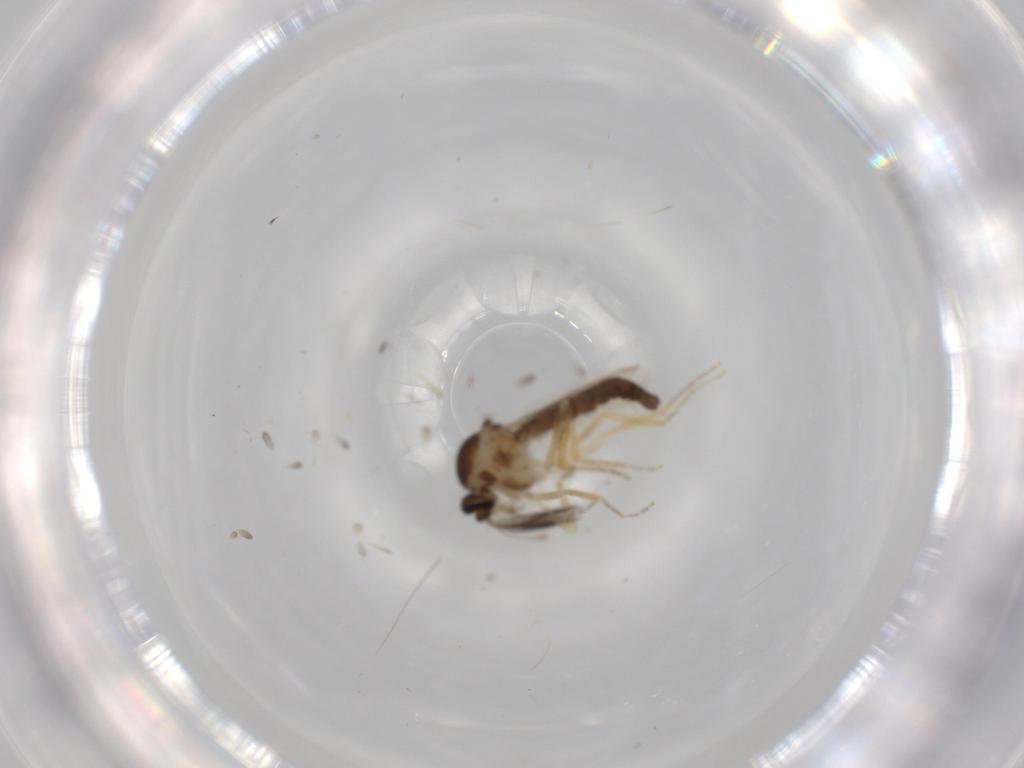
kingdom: Animalia
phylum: Arthropoda
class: Insecta
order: Diptera
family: Ceratopogonidae
